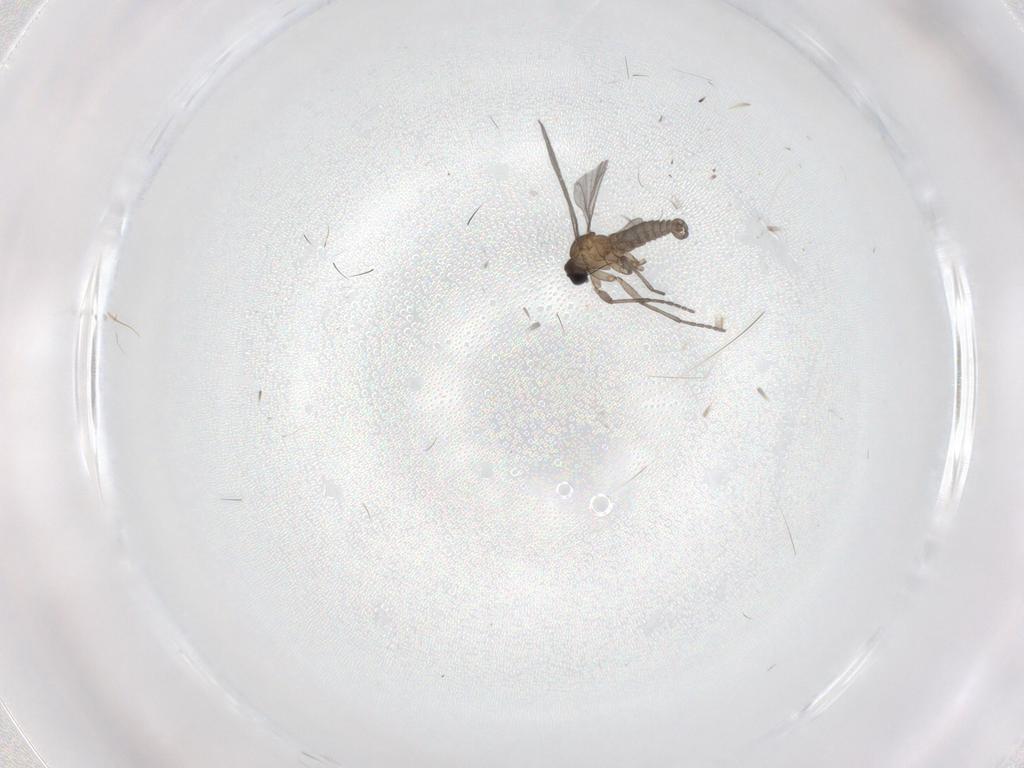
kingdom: Animalia
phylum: Arthropoda
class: Insecta
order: Diptera
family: Sciaridae
